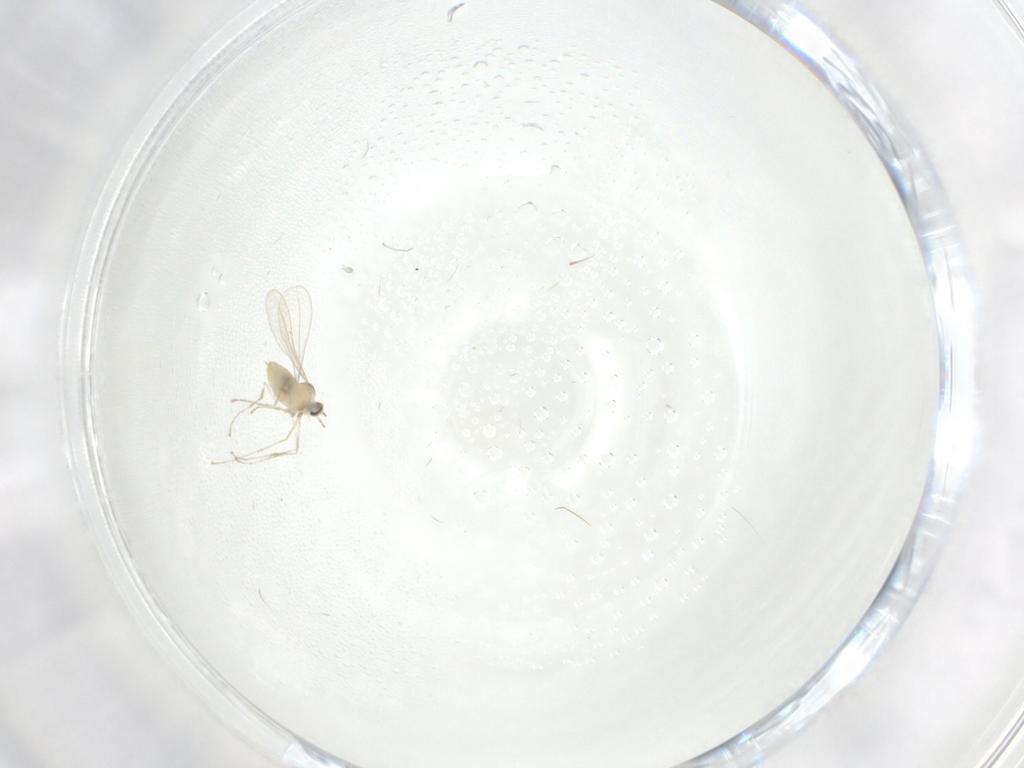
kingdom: Animalia
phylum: Arthropoda
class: Insecta
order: Diptera
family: Cecidomyiidae
